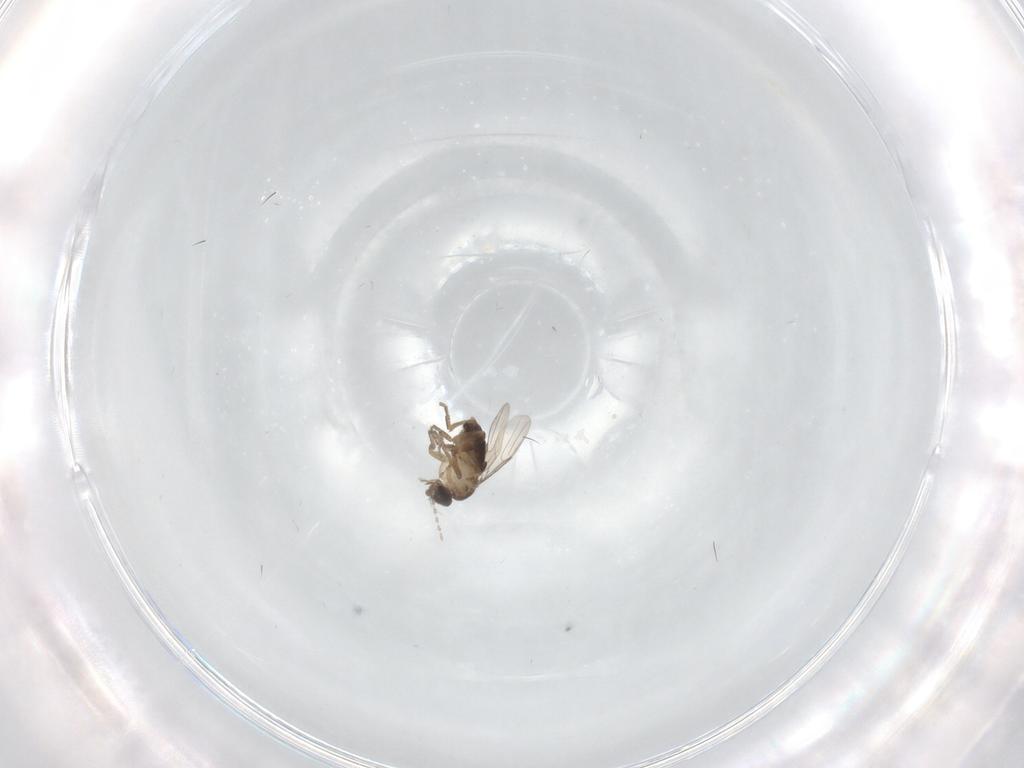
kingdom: Animalia
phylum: Arthropoda
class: Insecta
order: Diptera
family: Cecidomyiidae
